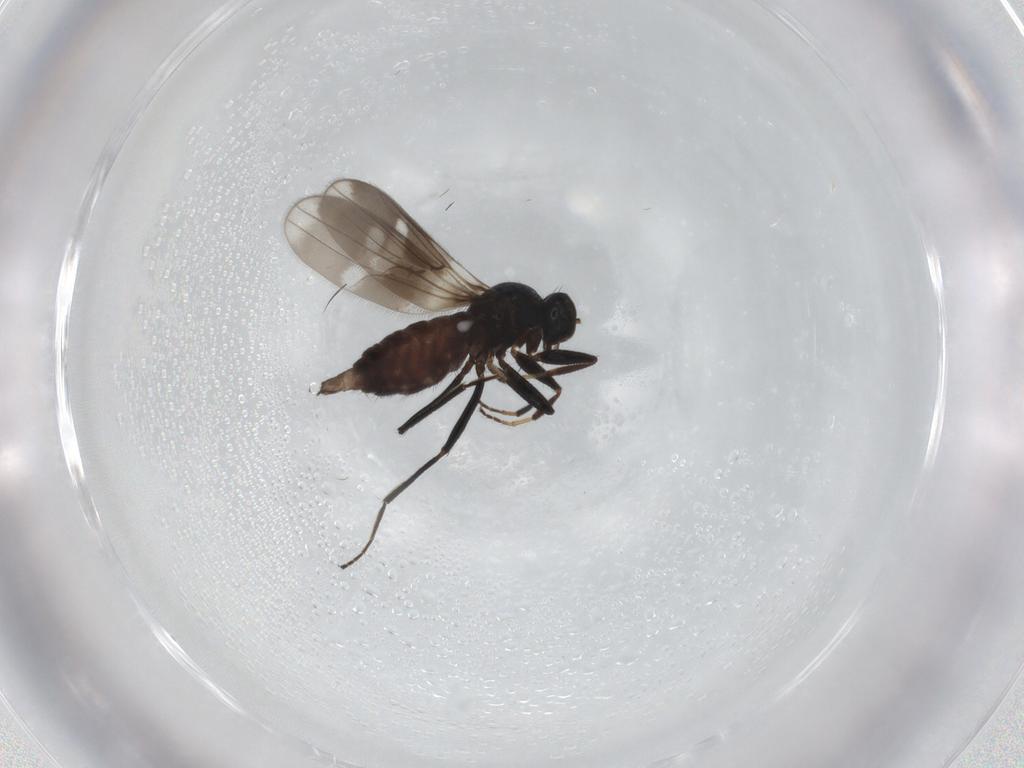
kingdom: Animalia
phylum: Arthropoda
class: Insecta
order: Diptera
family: Hybotidae
